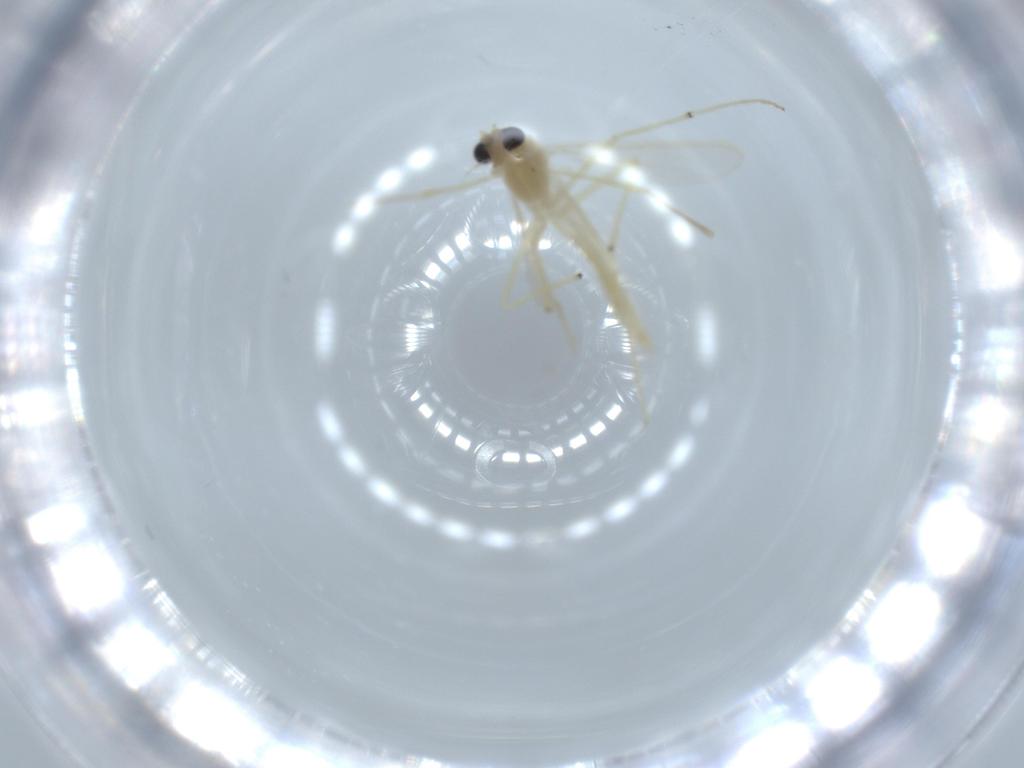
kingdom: Animalia
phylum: Arthropoda
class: Insecta
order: Diptera
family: Chironomidae
